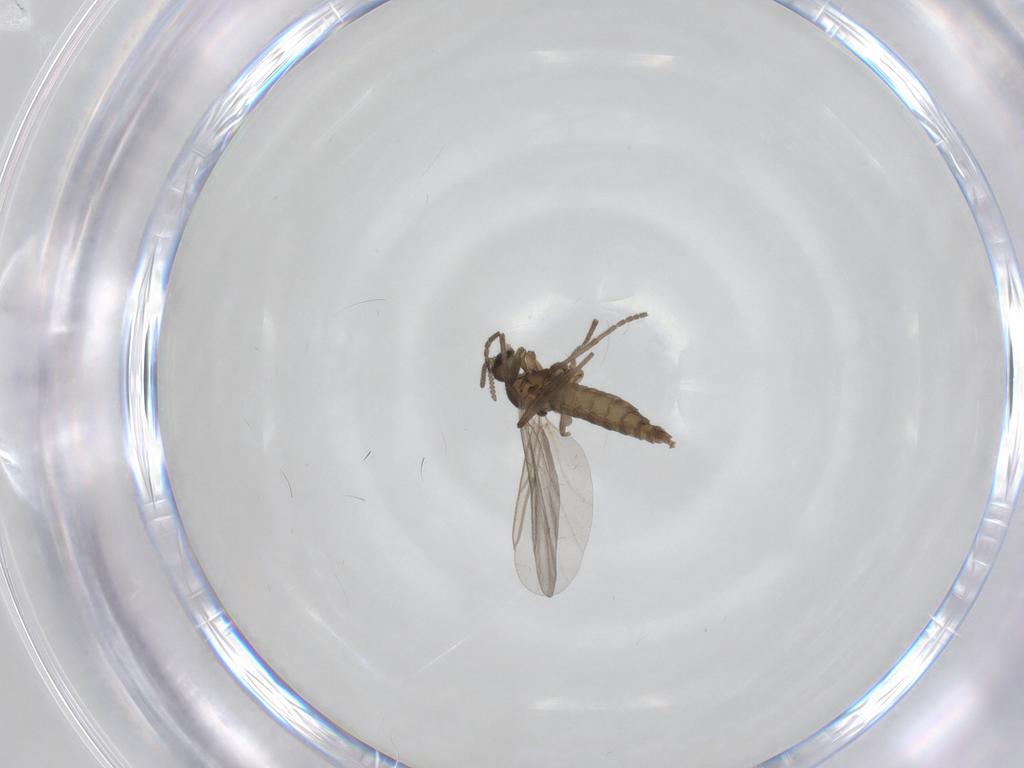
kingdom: Animalia
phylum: Arthropoda
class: Insecta
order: Diptera
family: Cecidomyiidae
